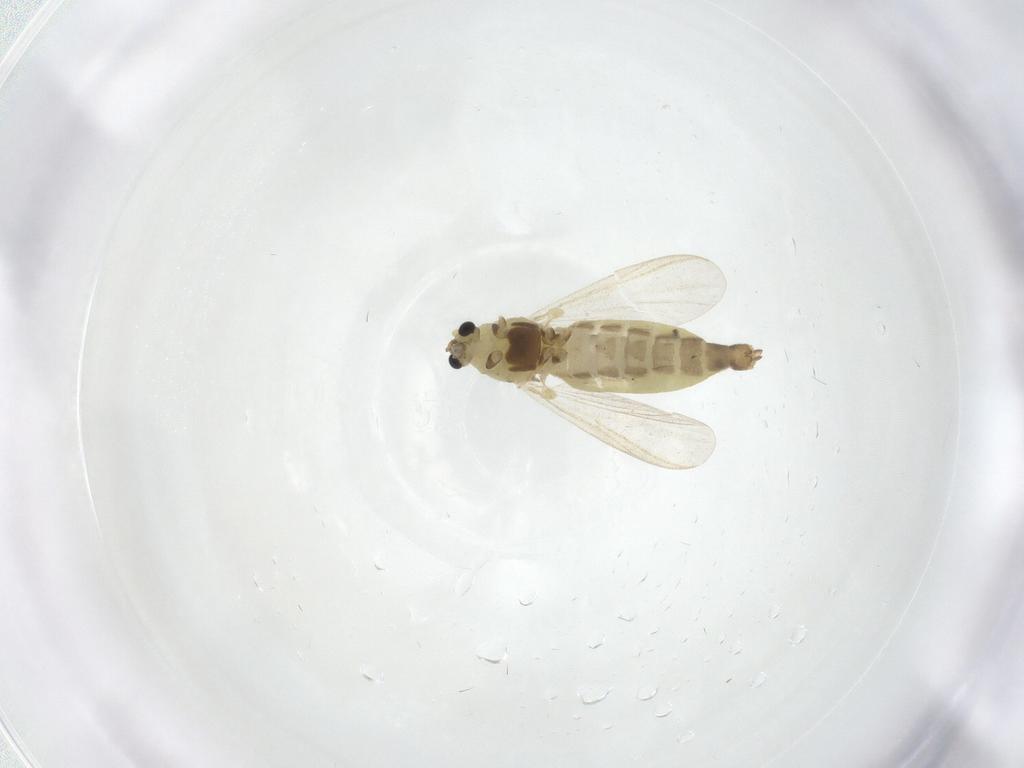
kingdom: Animalia
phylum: Arthropoda
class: Insecta
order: Diptera
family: Chironomidae
